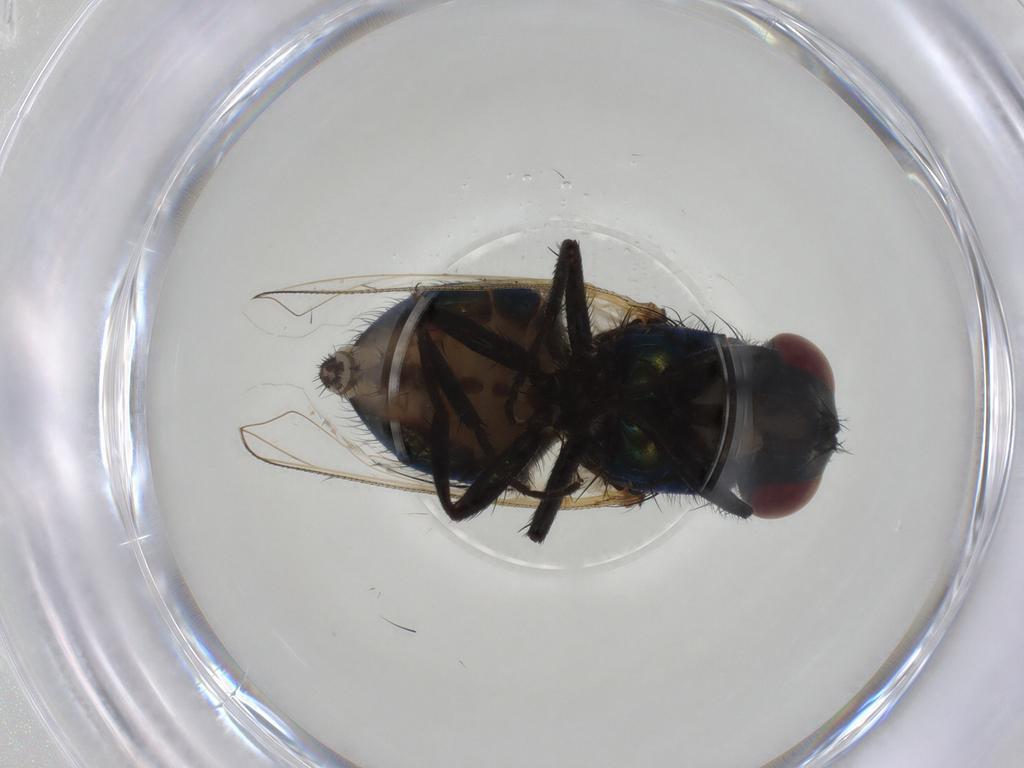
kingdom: Animalia
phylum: Arthropoda
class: Insecta
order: Diptera
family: Muscidae
